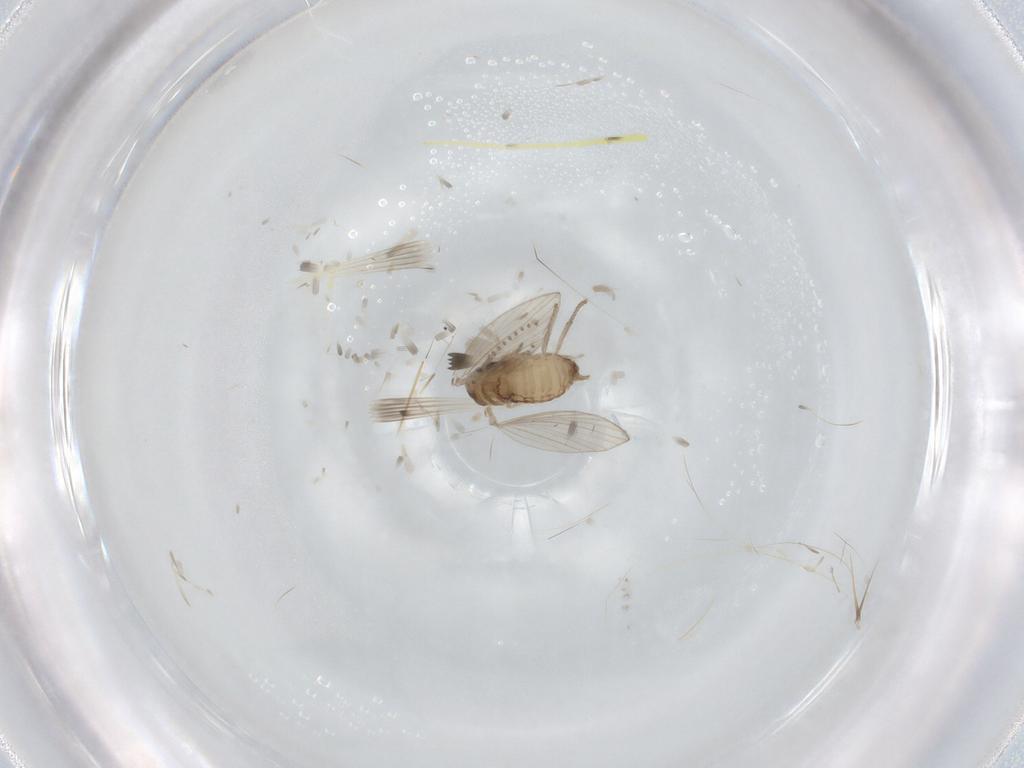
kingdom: Animalia
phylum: Arthropoda
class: Insecta
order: Diptera
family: Psychodidae
